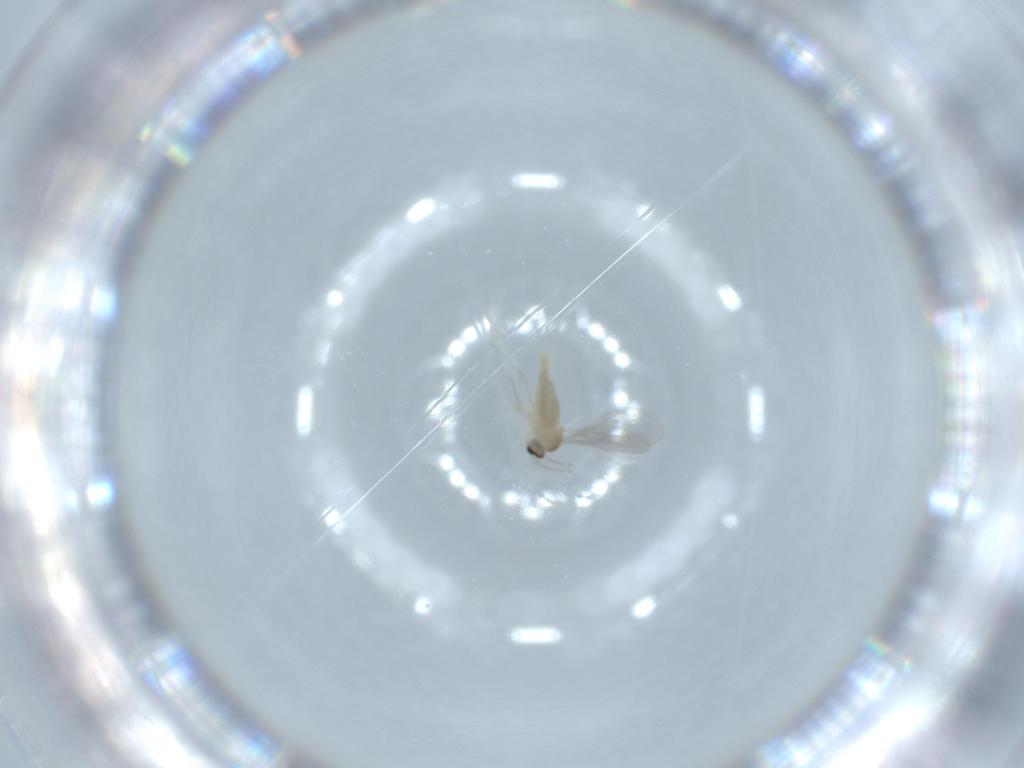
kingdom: Animalia
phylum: Arthropoda
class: Insecta
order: Diptera
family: Cecidomyiidae
